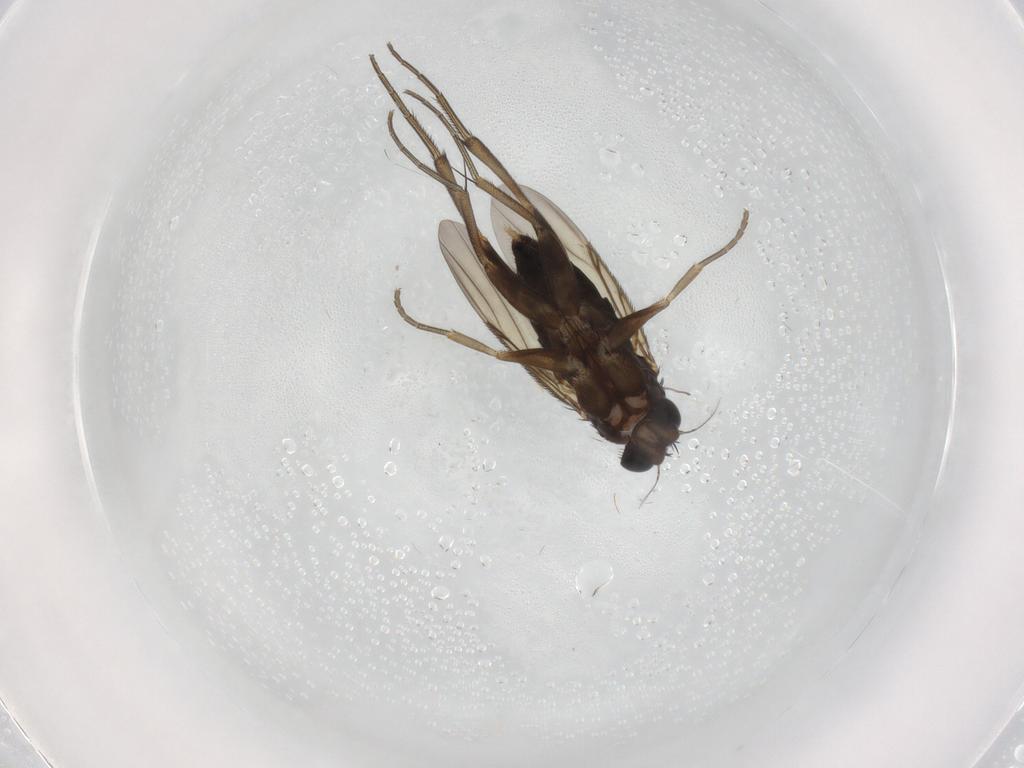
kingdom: Animalia
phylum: Arthropoda
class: Insecta
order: Diptera
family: Phoridae
